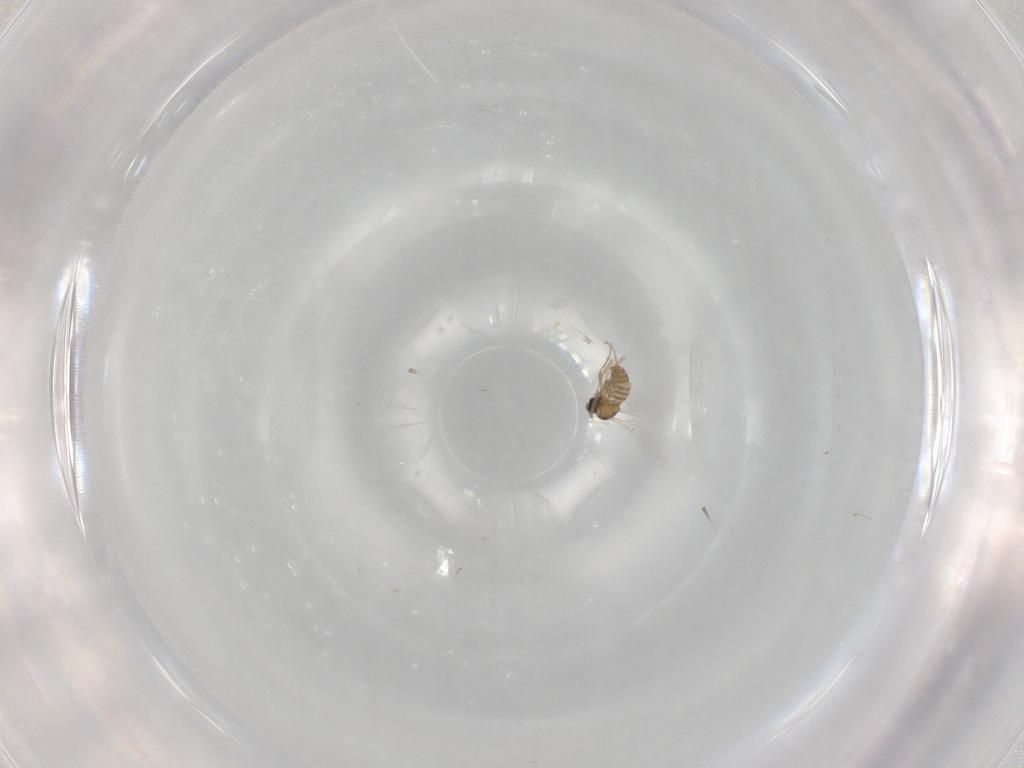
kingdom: Animalia
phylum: Arthropoda
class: Insecta
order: Diptera
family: Cecidomyiidae
